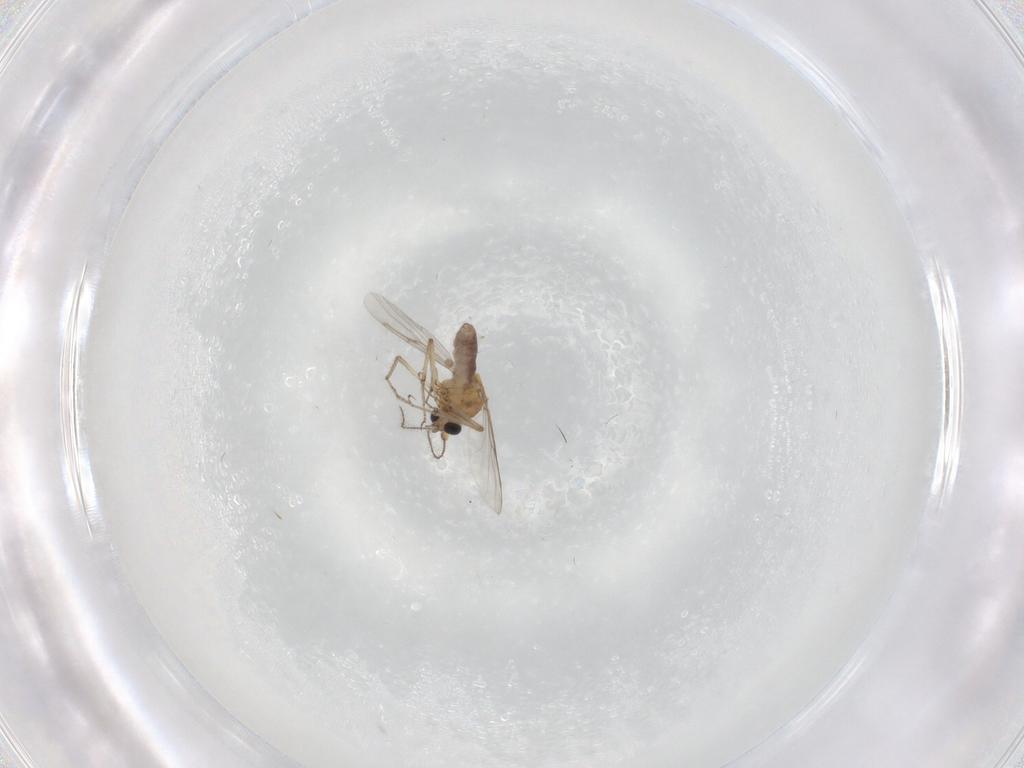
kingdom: Animalia
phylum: Arthropoda
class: Insecta
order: Diptera
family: Phoridae
